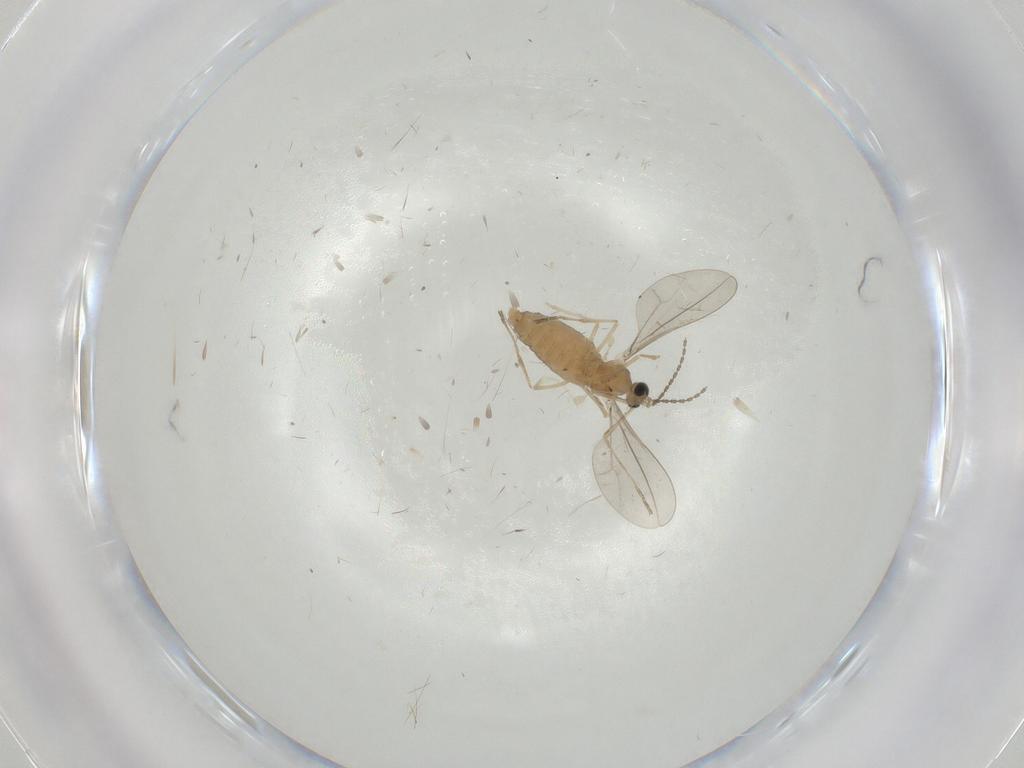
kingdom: Animalia
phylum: Arthropoda
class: Insecta
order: Diptera
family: Cecidomyiidae
